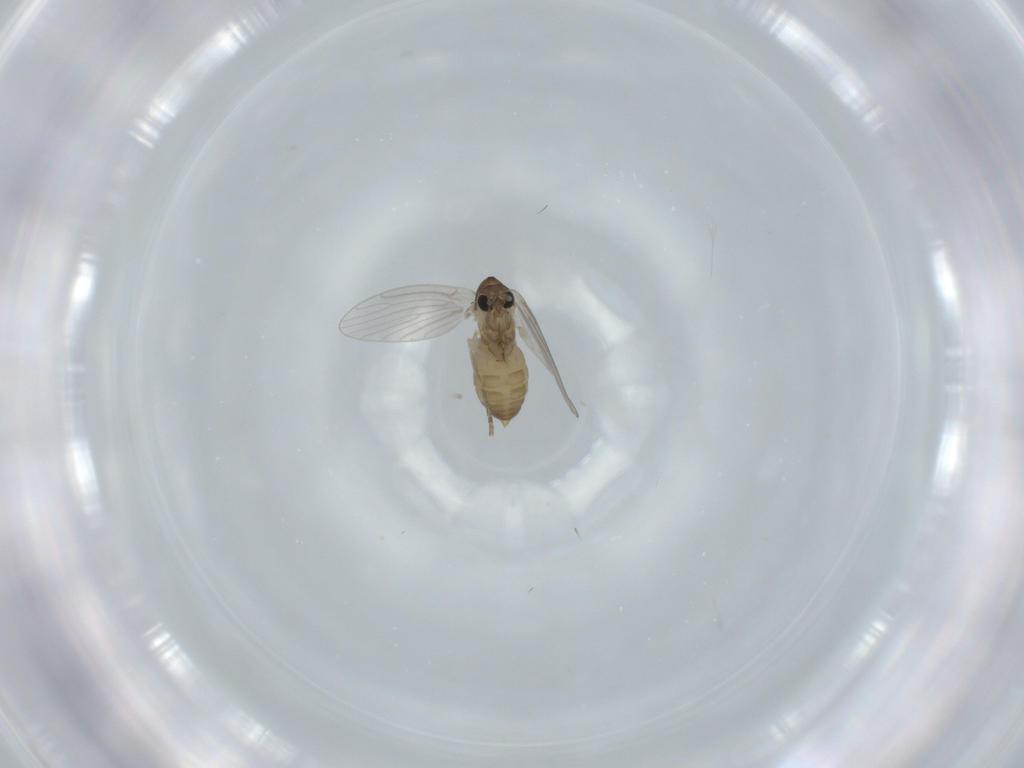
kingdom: Animalia
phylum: Arthropoda
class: Insecta
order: Diptera
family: Psychodidae
